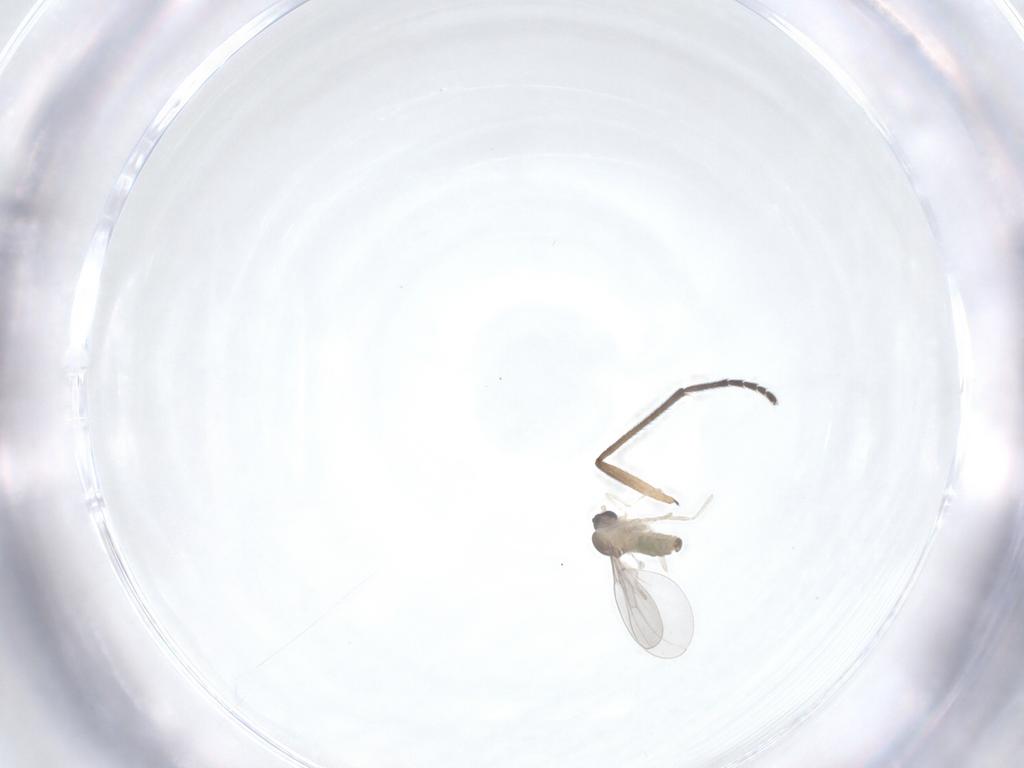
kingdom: Animalia
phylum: Arthropoda
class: Insecta
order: Diptera
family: Cecidomyiidae
